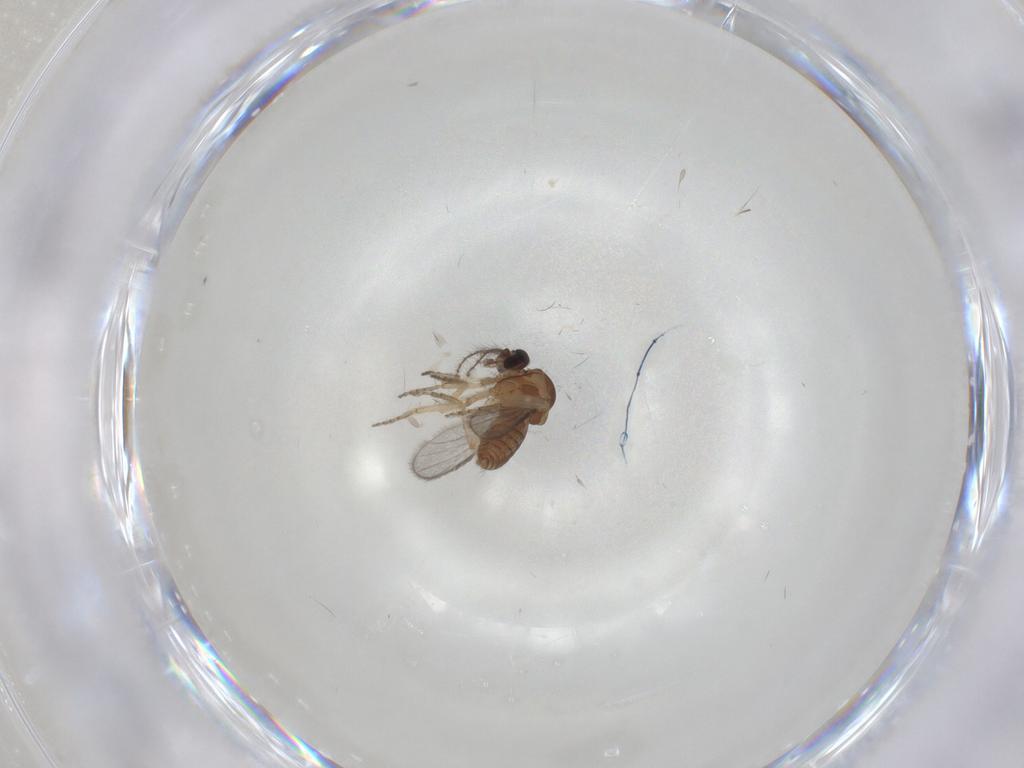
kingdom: Animalia
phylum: Arthropoda
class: Insecta
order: Diptera
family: Ceratopogonidae
